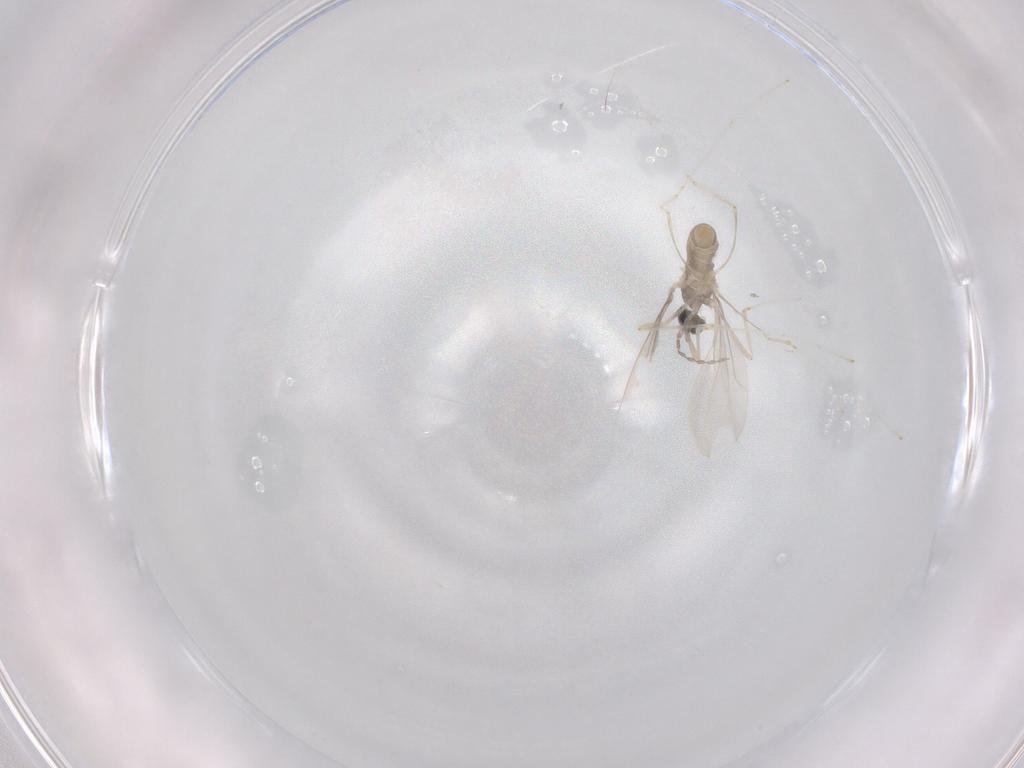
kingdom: Animalia
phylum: Arthropoda
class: Insecta
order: Diptera
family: Cecidomyiidae
